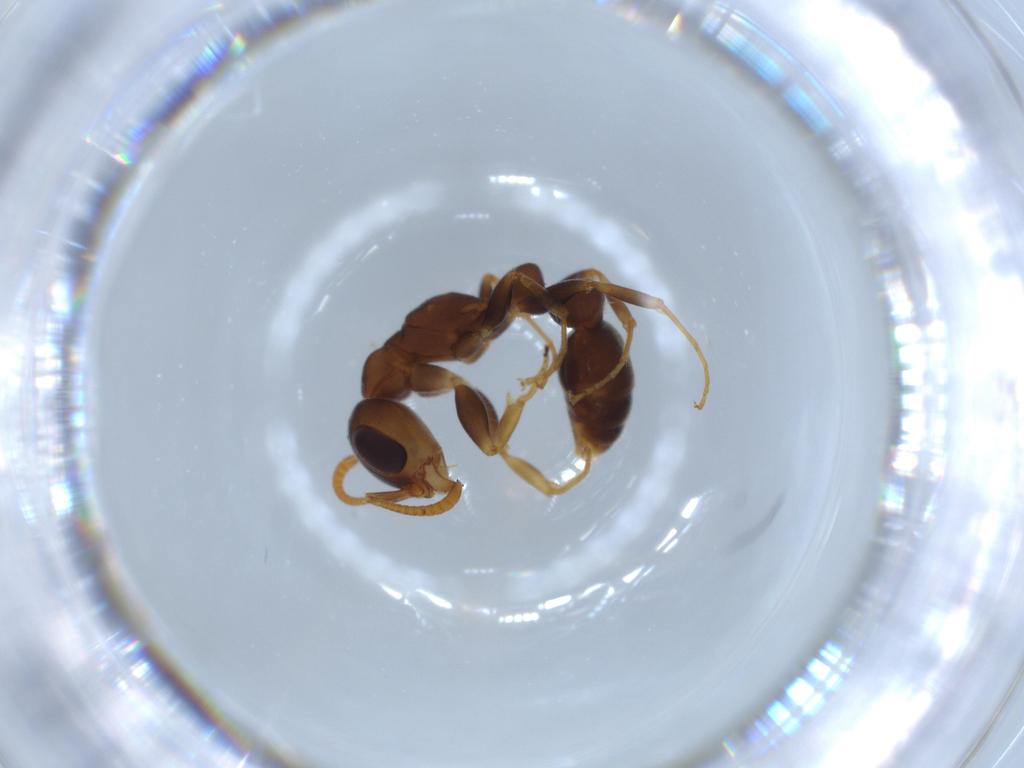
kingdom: Animalia
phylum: Arthropoda
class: Insecta
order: Hymenoptera
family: Formicidae
